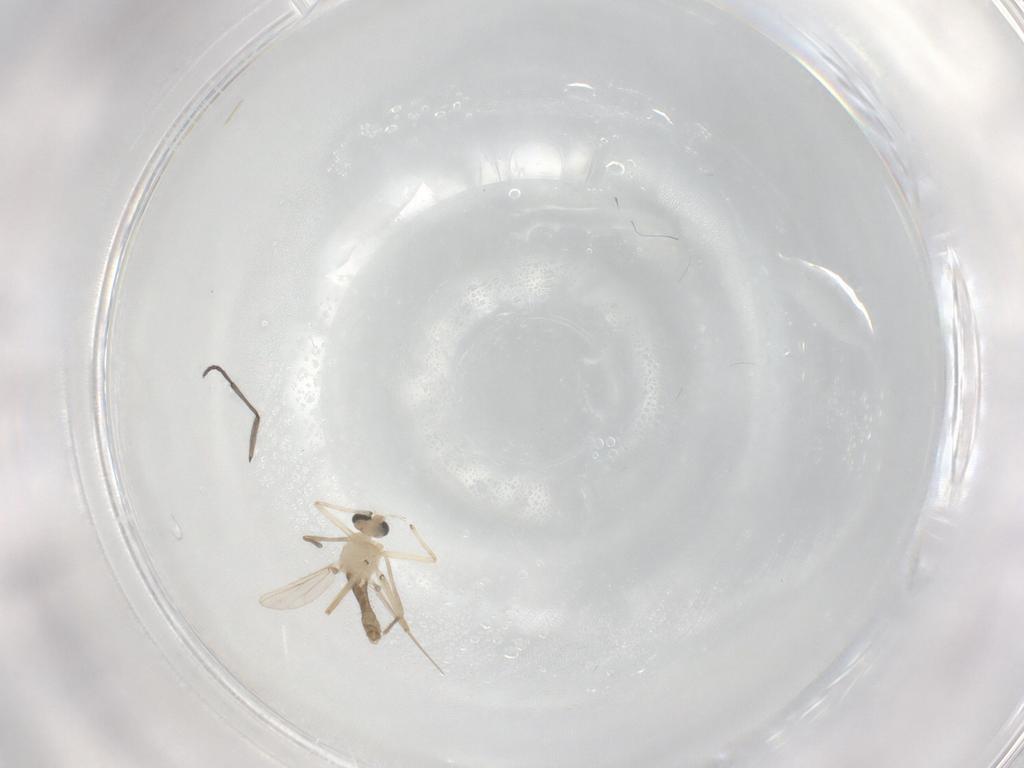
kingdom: Animalia
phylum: Arthropoda
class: Insecta
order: Diptera
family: Chironomidae
